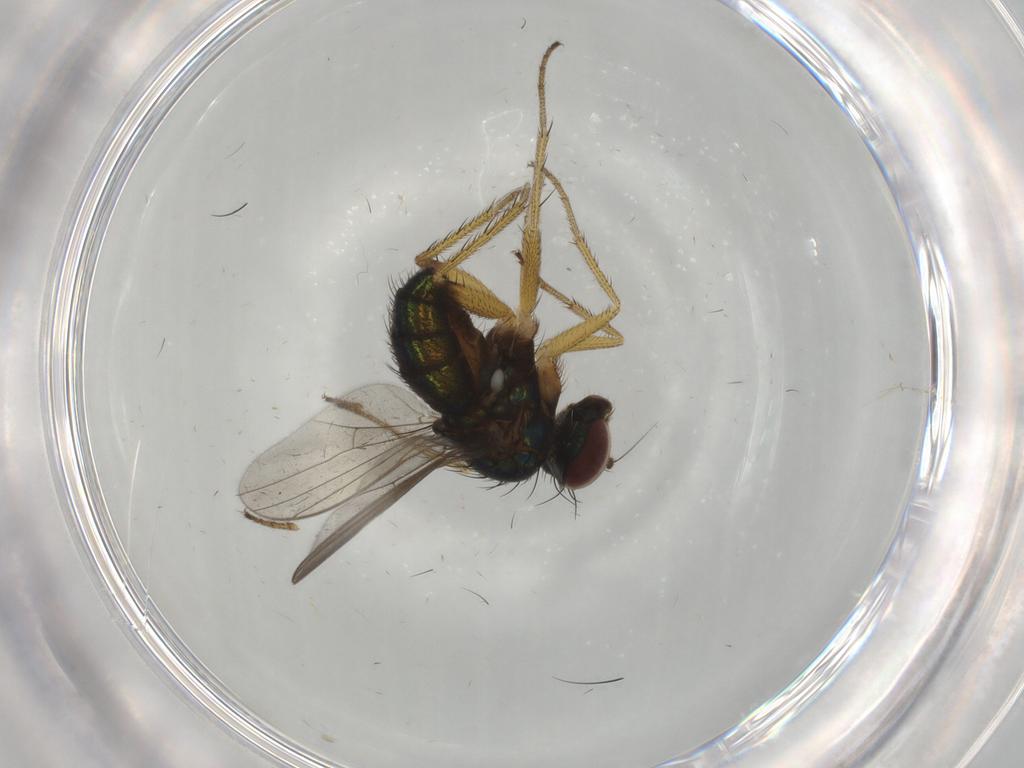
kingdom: Animalia
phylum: Arthropoda
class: Insecta
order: Diptera
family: Dolichopodidae
